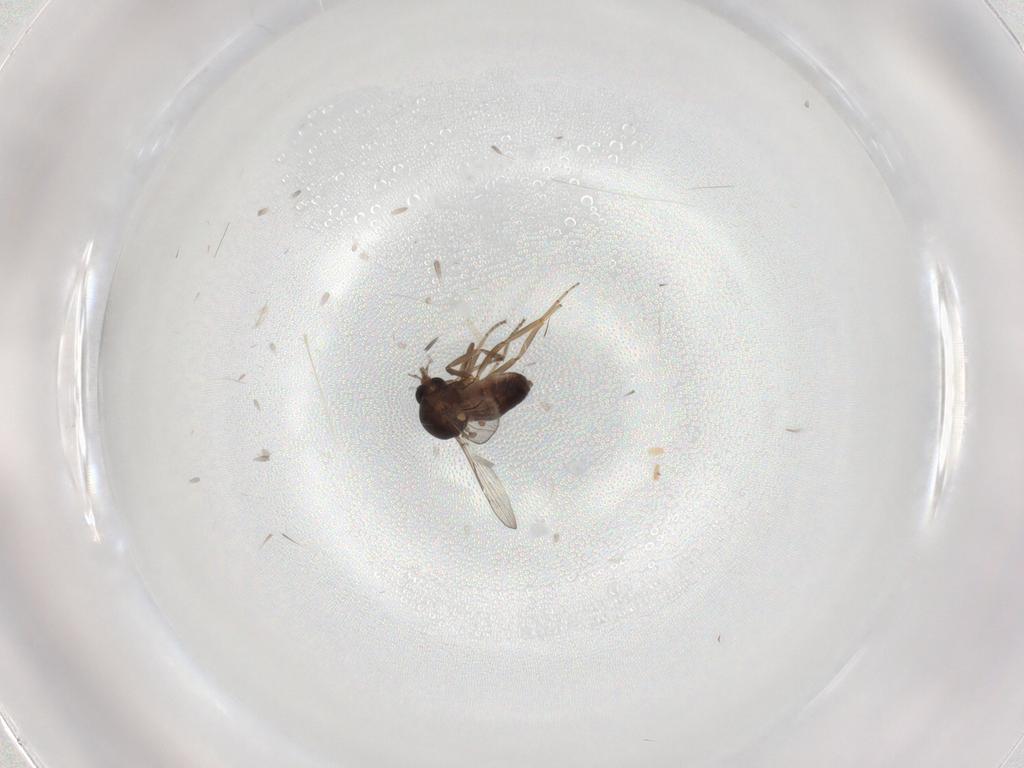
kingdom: Animalia
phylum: Arthropoda
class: Insecta
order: Diptera
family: Ceratopogonidae
